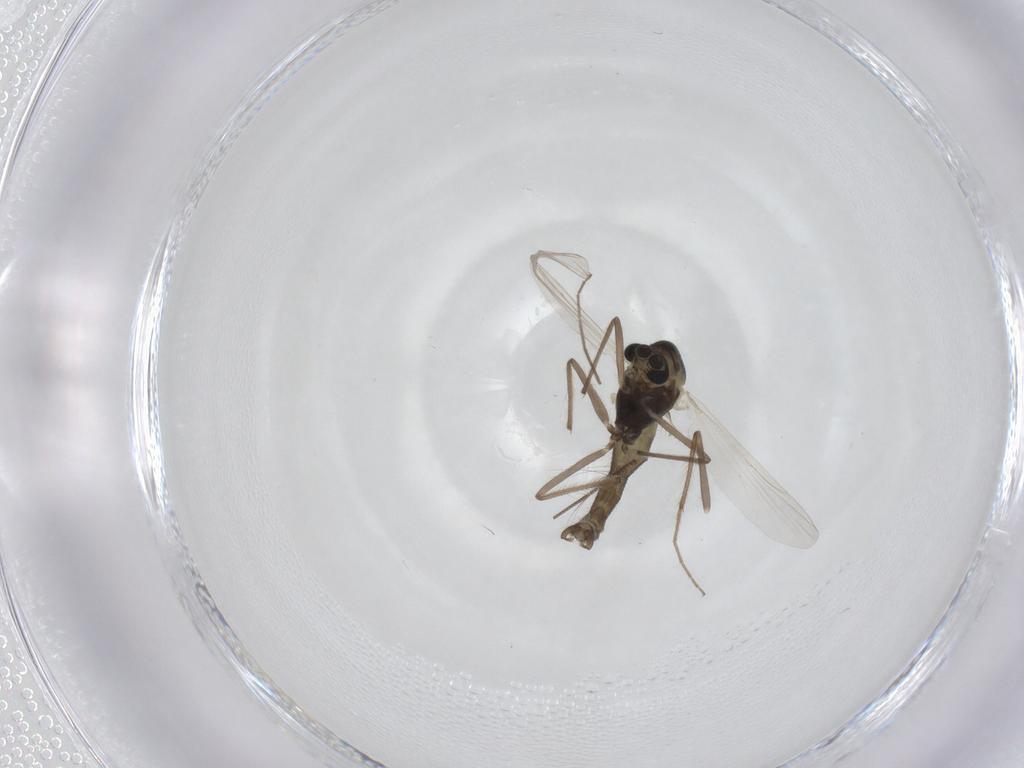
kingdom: Animalia
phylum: Arthropoda
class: Insecta
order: Diptera
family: Chironomidae
